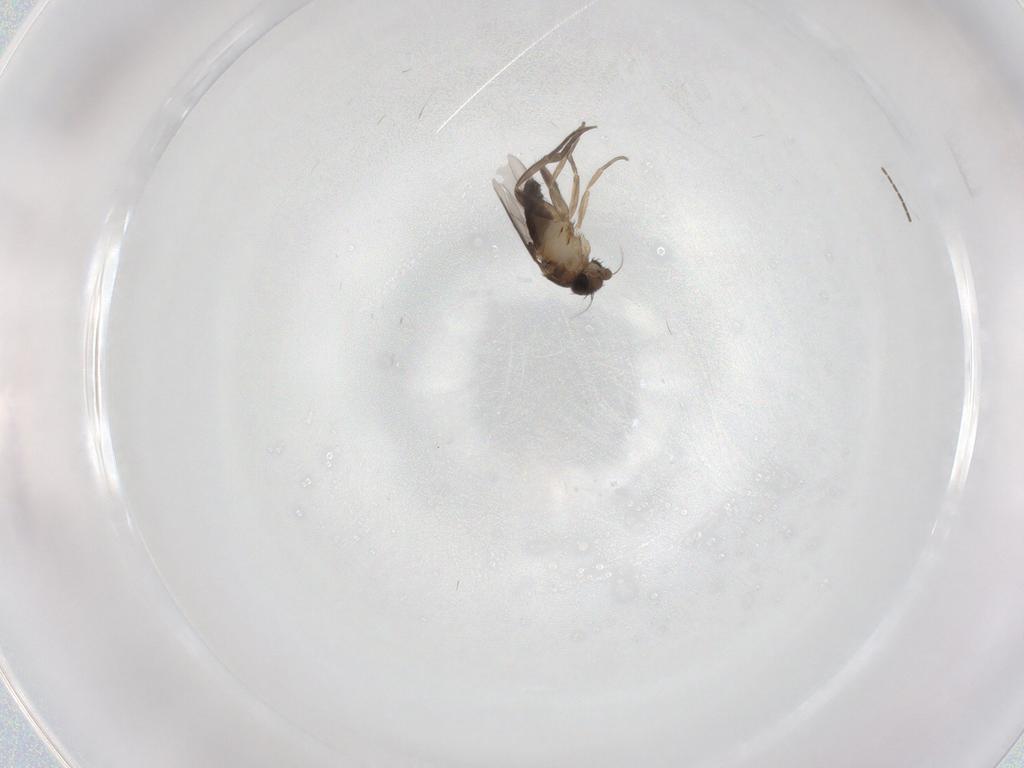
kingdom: Animalia
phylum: Arthropoda
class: Insecta
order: Diptera
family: Phoridae
